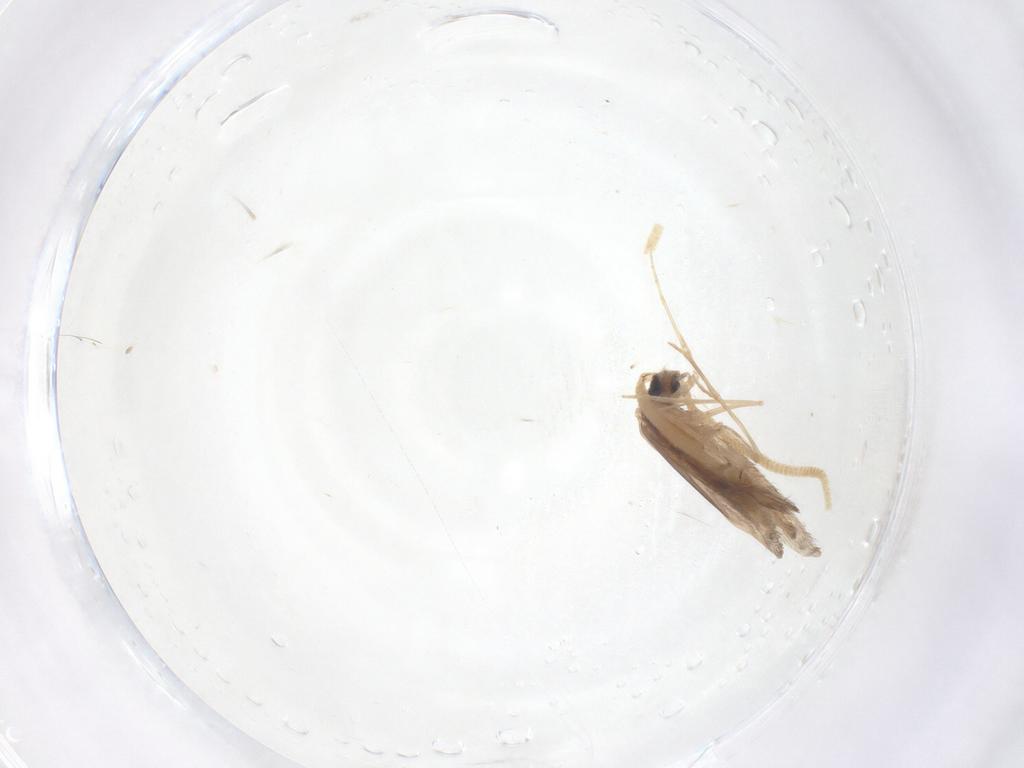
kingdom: Animalia
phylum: Arthropoda
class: Insecta
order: Trichoptera
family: Hydroptilidae
